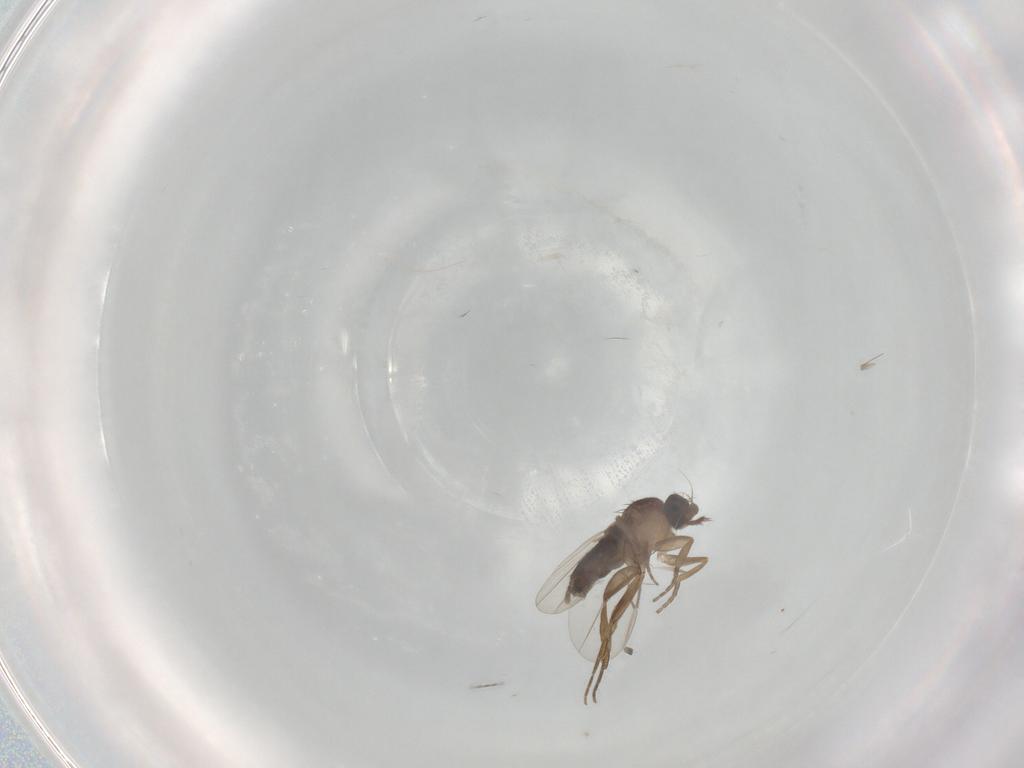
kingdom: Animalia
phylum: Arthropoda
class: Insecta
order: Diptera
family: Phoridae
